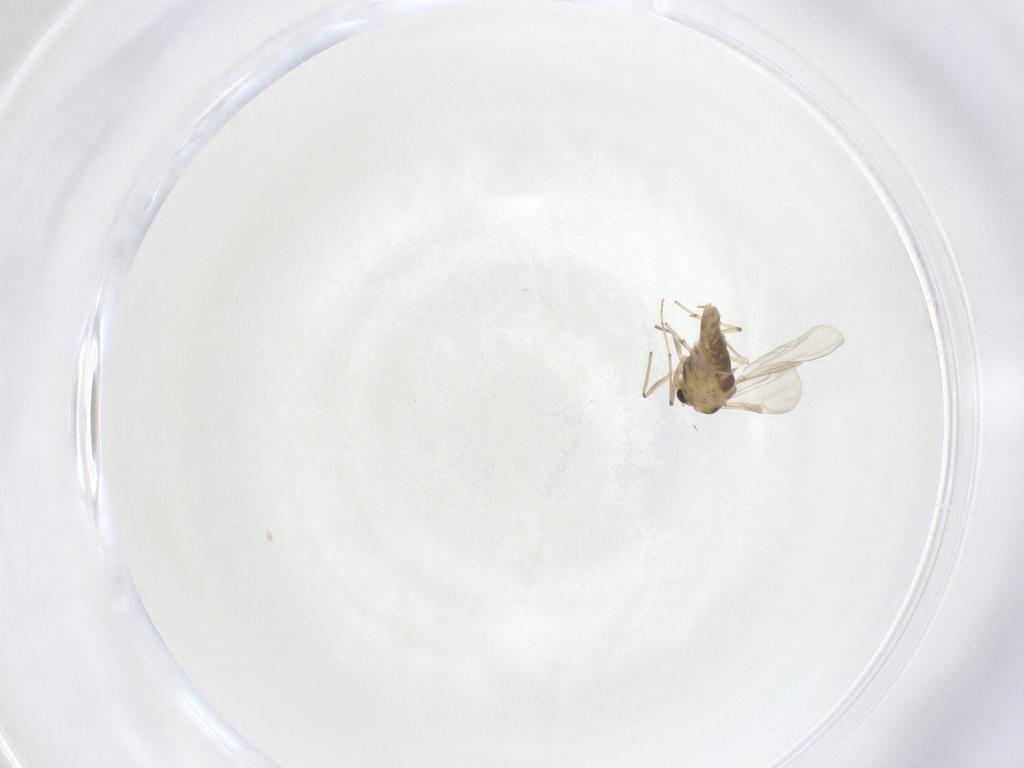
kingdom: Animalia
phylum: Arthropoda
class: Insecta
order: Diptera
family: Chironomidae
